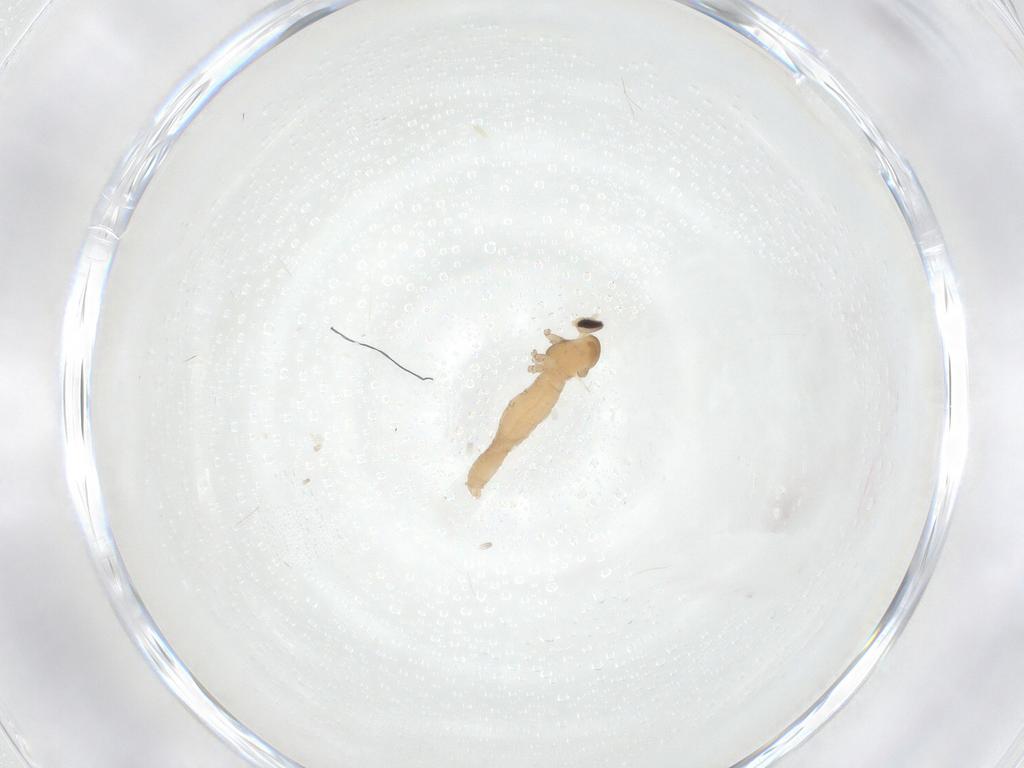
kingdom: Animalia
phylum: Arthropoda
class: Insecta
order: Diptera
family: Cecidomyiidae
